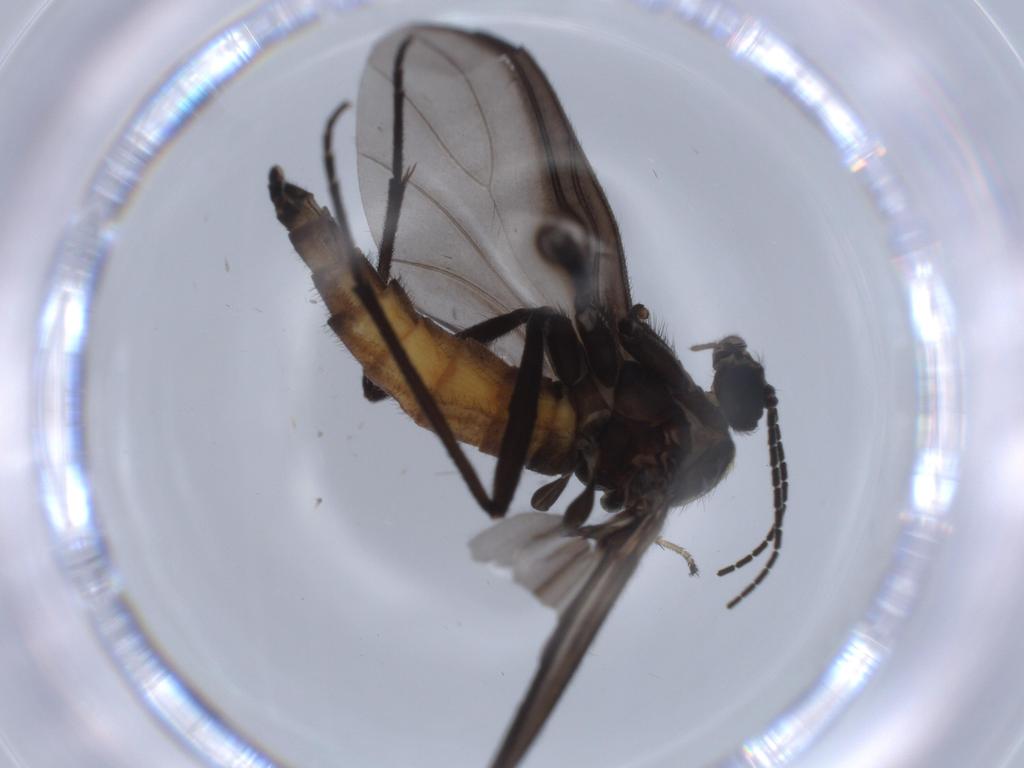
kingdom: Animalia
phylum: Arthropoda
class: Insecta
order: Diptera
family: Milichiidae
